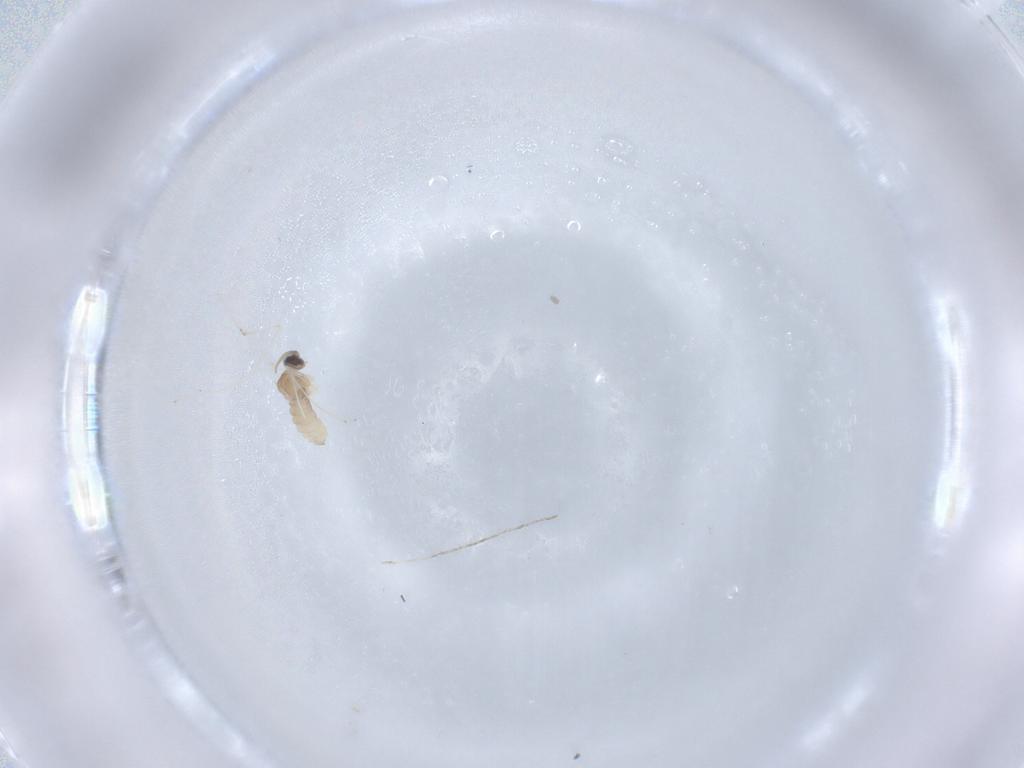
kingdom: Animalia
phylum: Arthropoda
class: Insecta
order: Diptera
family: Cecidomyiidae
